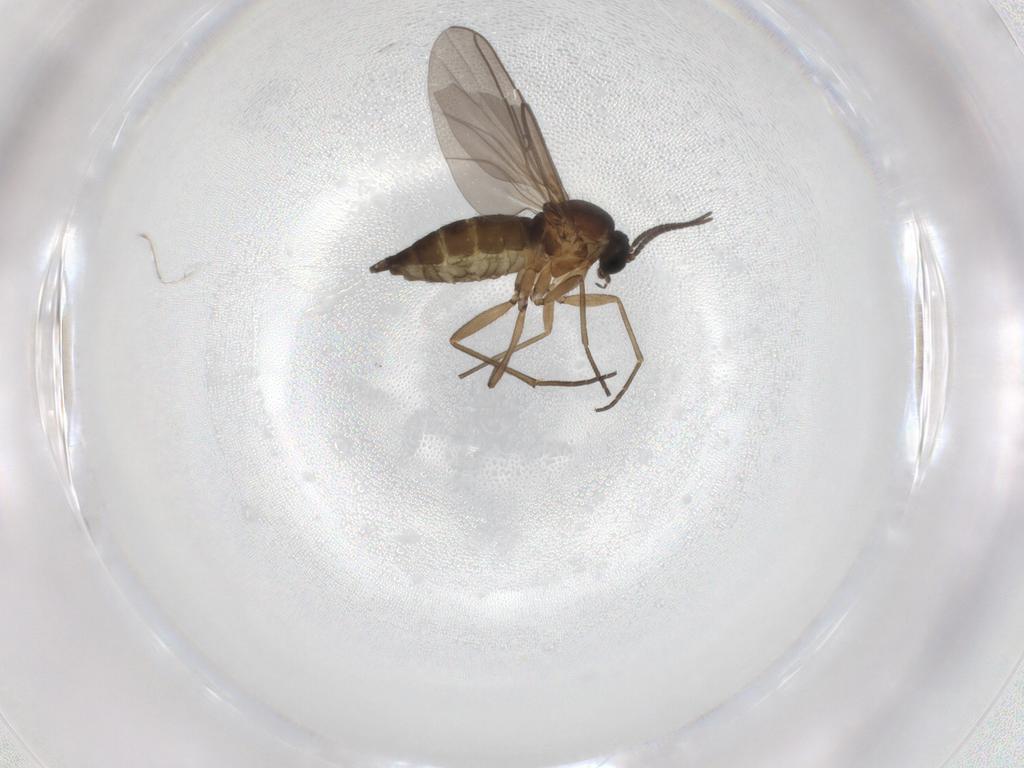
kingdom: Animalia
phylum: Arthropoda
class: Insecta
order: Diptera
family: Sciaridae
